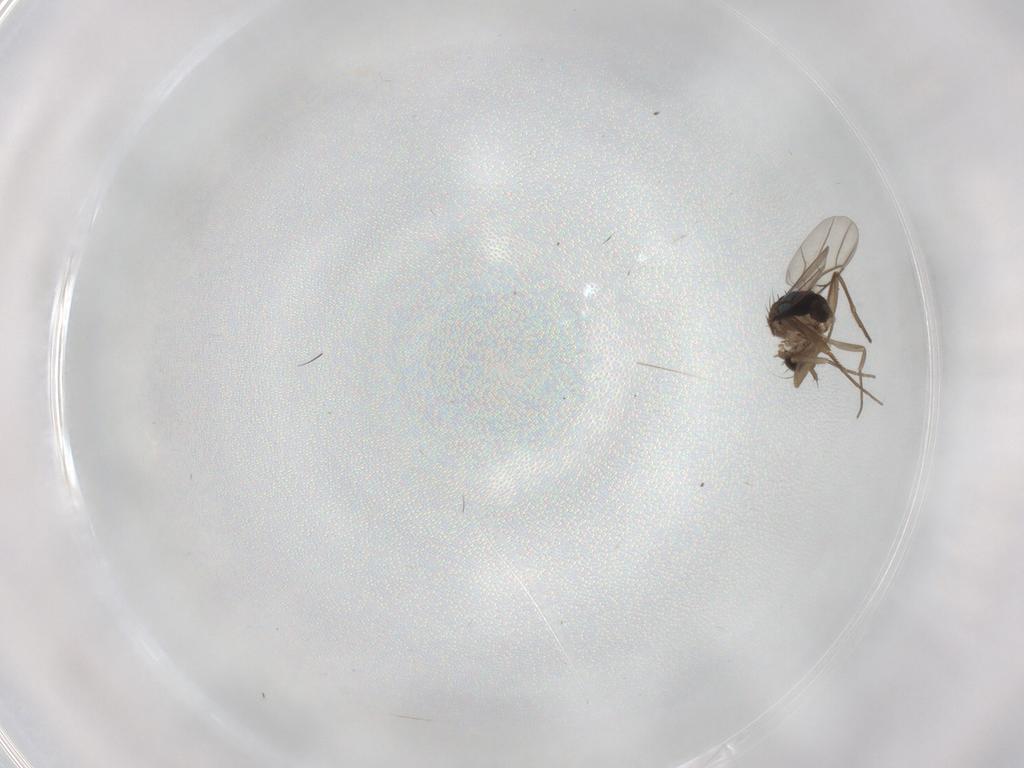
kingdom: Animalia
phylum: Arthropoda
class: Insecta
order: Diptera
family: Phoridae
